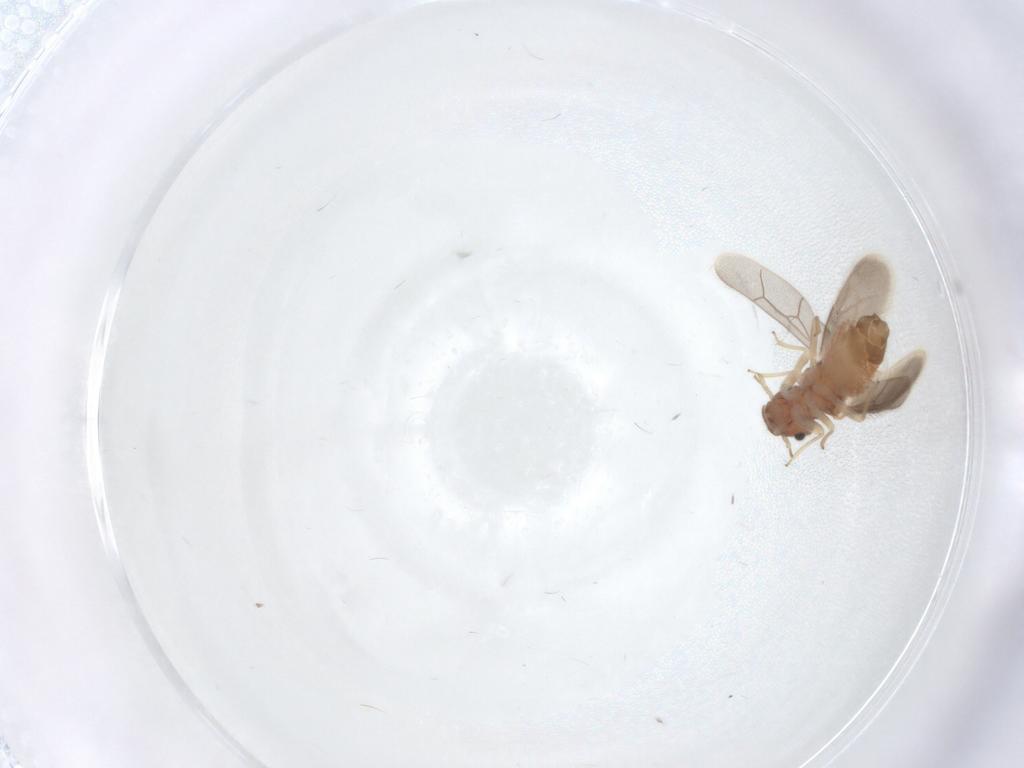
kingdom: Animalia
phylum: Arthropoda
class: Insecta
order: Psocodea
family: Archipsocidae
